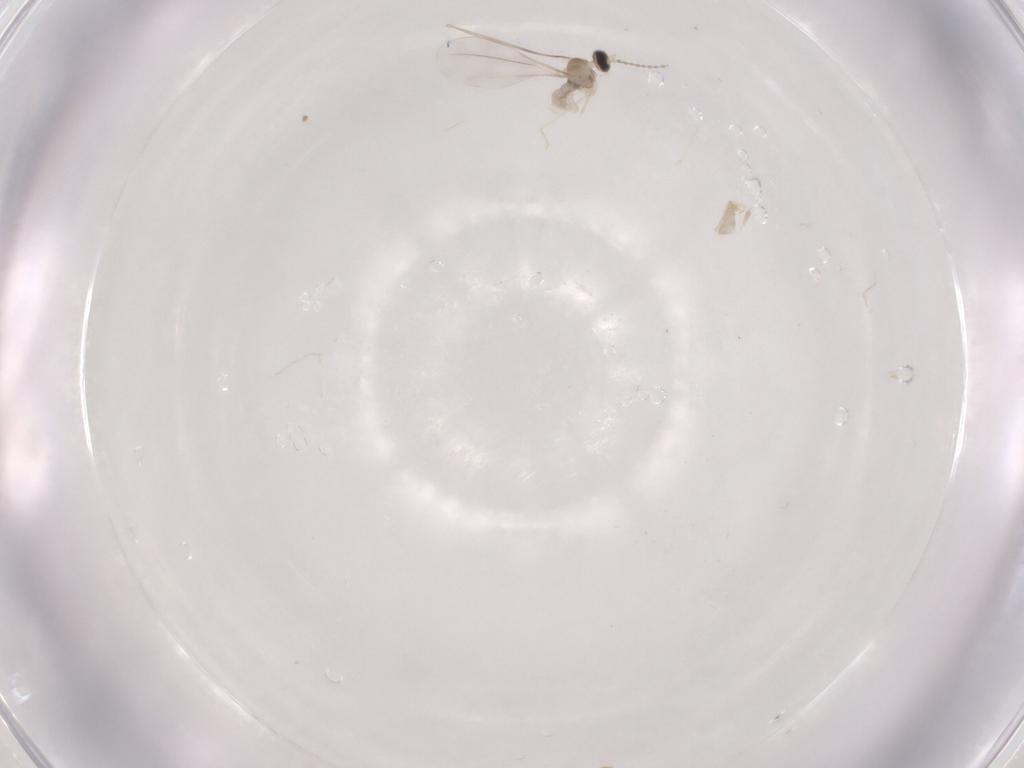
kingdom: Animalia
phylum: Arthropoda
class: Insecta
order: Diptera
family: Cecidomyiidae
